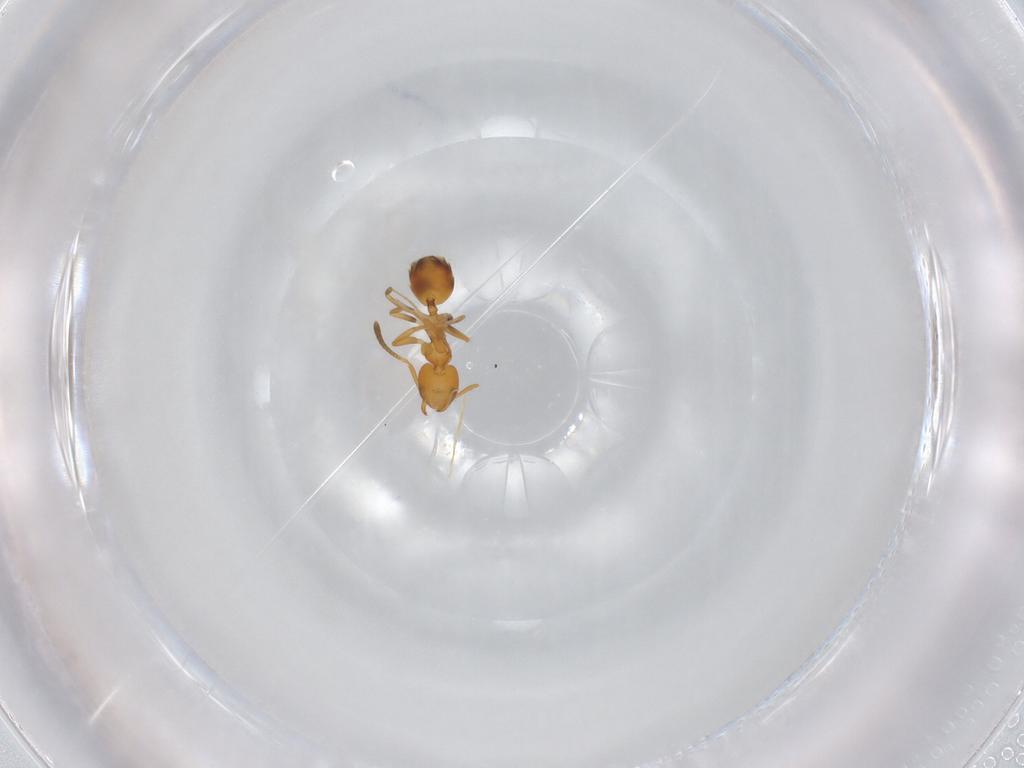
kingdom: Animalia
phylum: Arthropoda
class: Insecta
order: Hymenoptera
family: Formicidae
